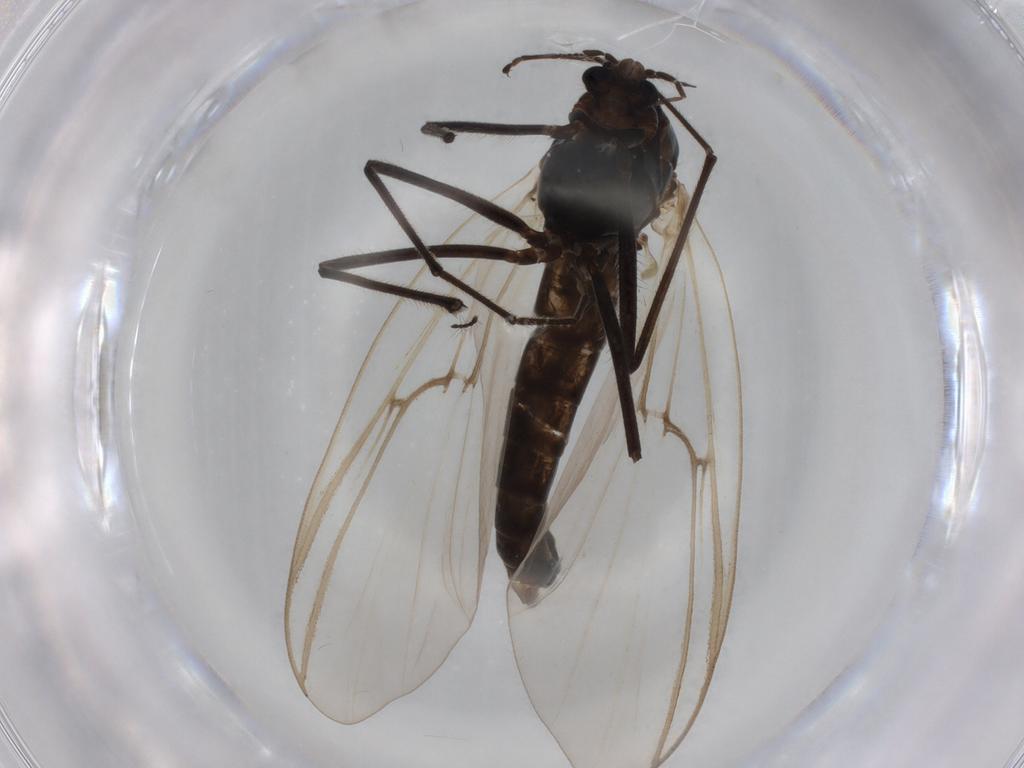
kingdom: Animalia
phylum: Arthropoda
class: Insecta
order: Diptera
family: Chironomidae
